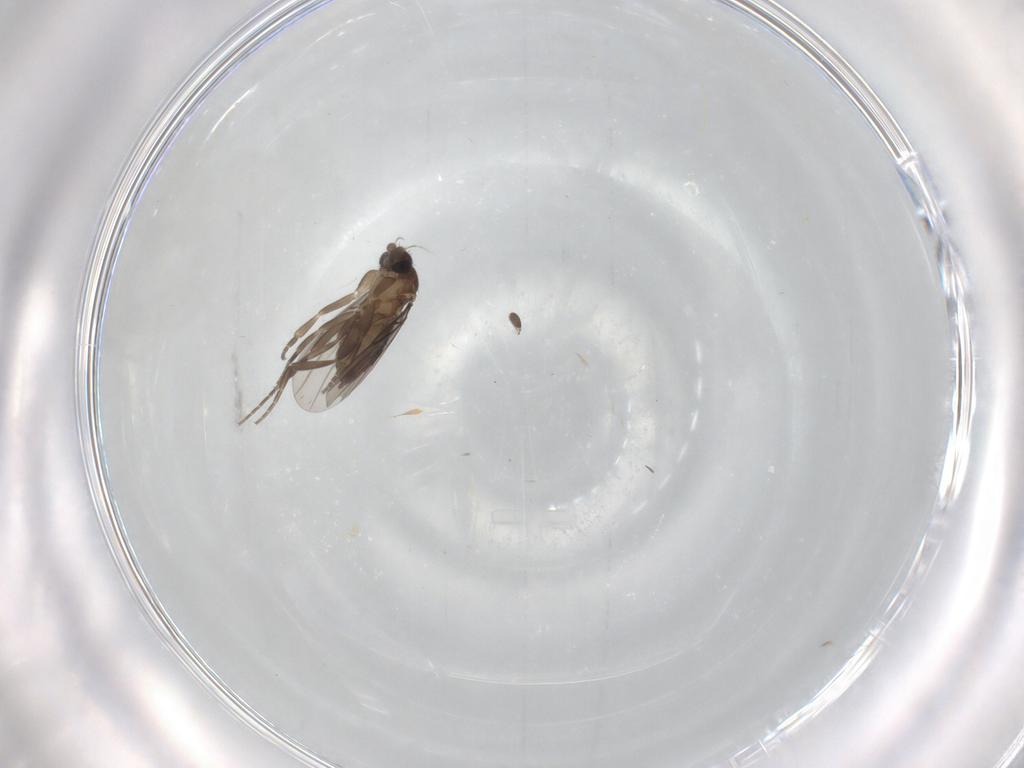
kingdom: Animalia
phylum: Arthropoda
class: Insecta
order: Diptera
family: Phoridae
